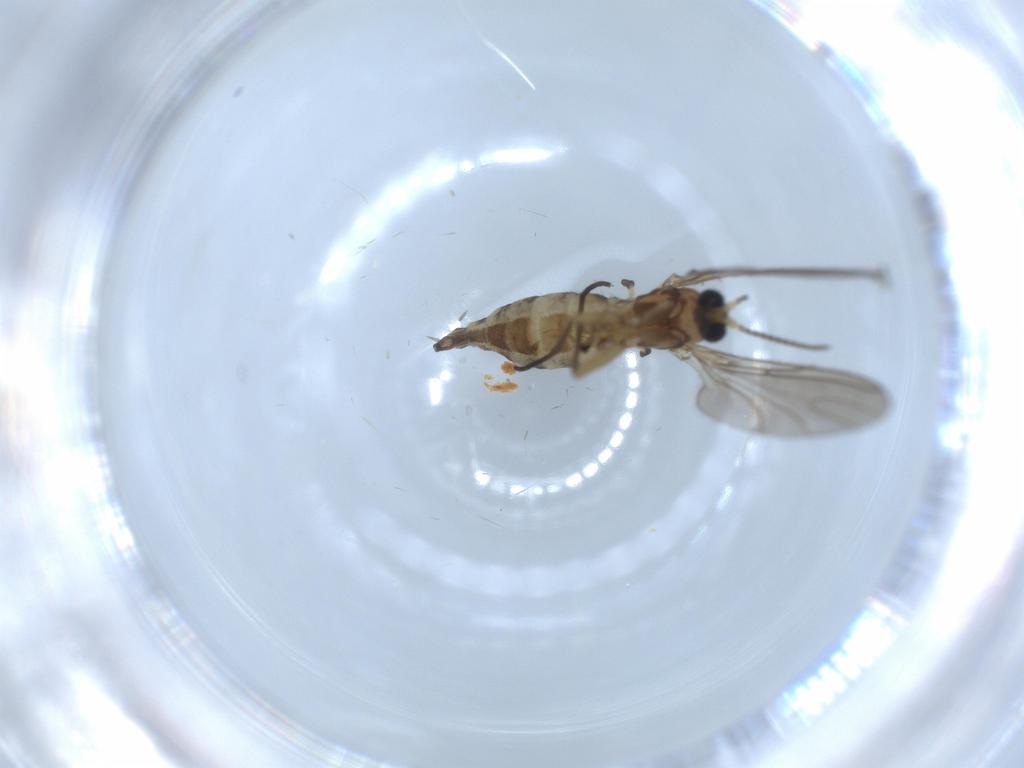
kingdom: Animalia
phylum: Arthropoda
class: Insecta
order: Diptera
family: Sciaridae
